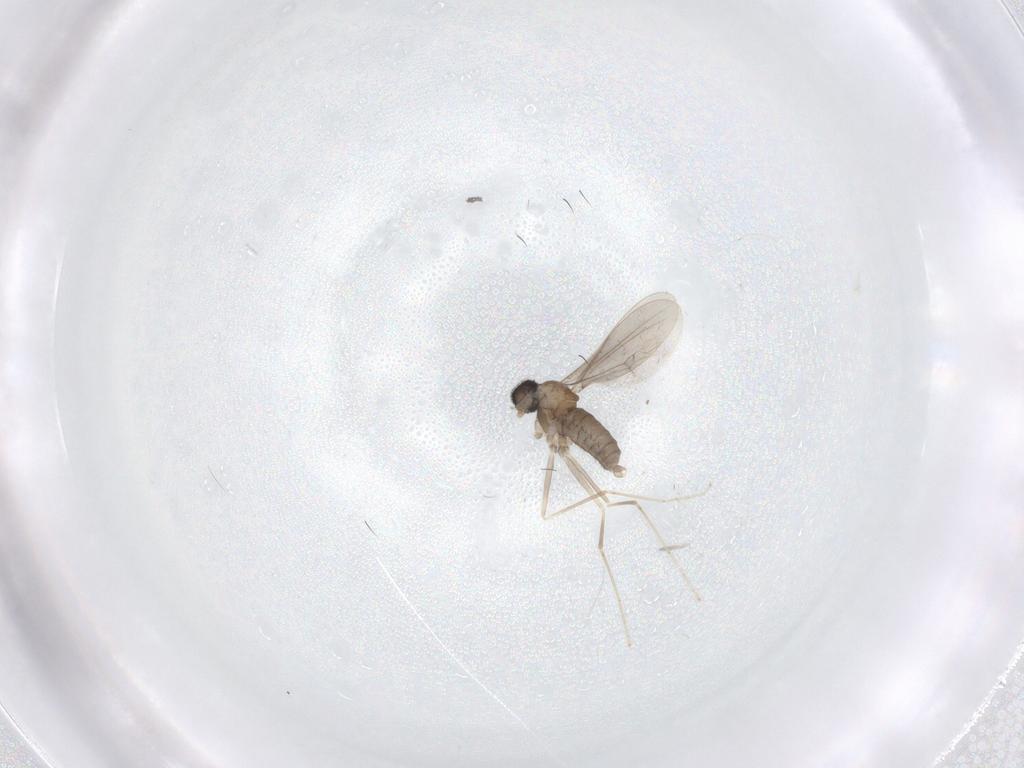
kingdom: Animalia
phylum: Arthropoda
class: Insecta
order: Diptera
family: Cecidomyiidae
